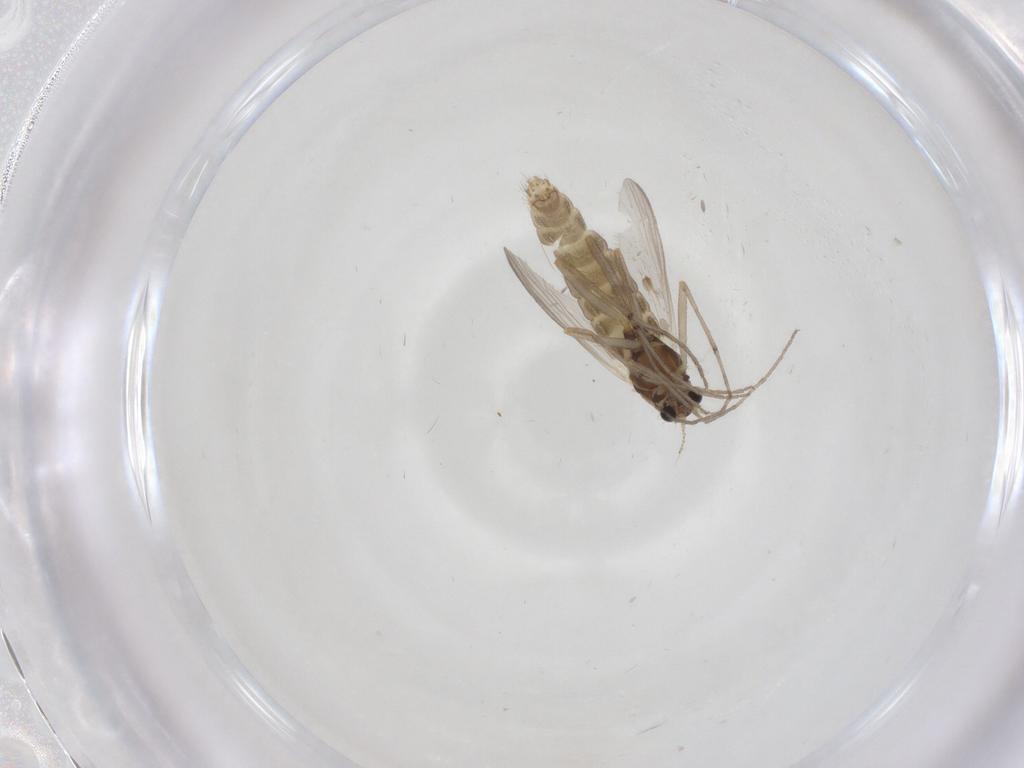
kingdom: Animalia
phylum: Arthropoda
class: Insecta
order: Diptera
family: Chironomidae
